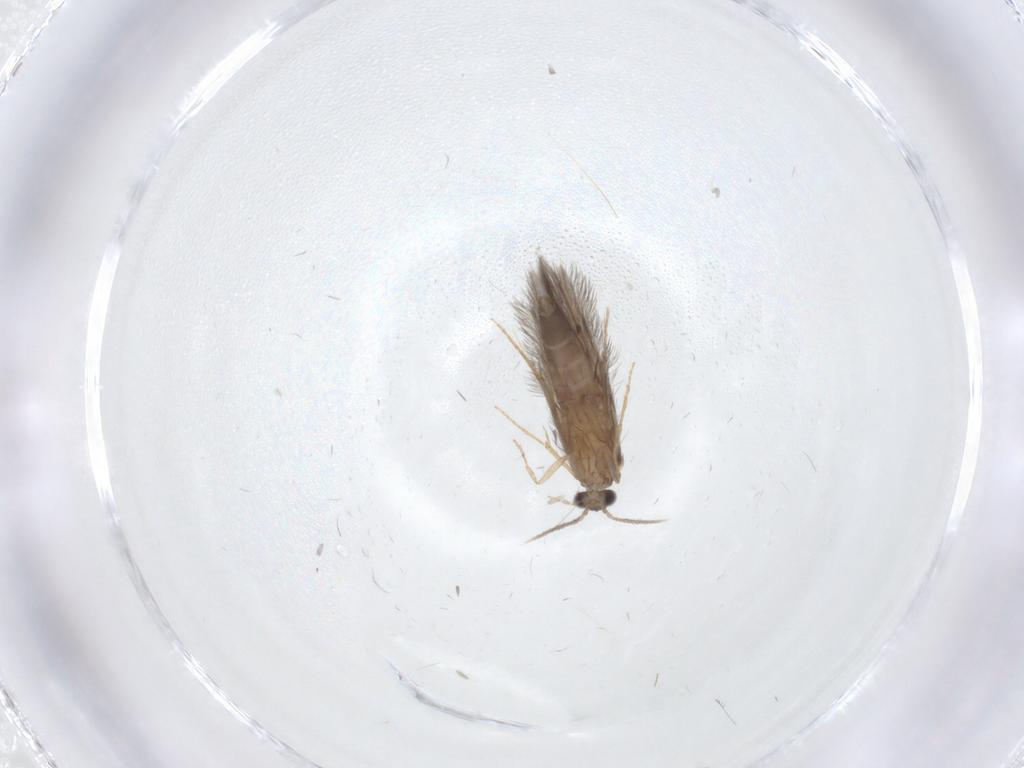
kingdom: Animalia
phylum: Arthropoda
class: Insecta
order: Trichoptera
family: Hydroptilidae
